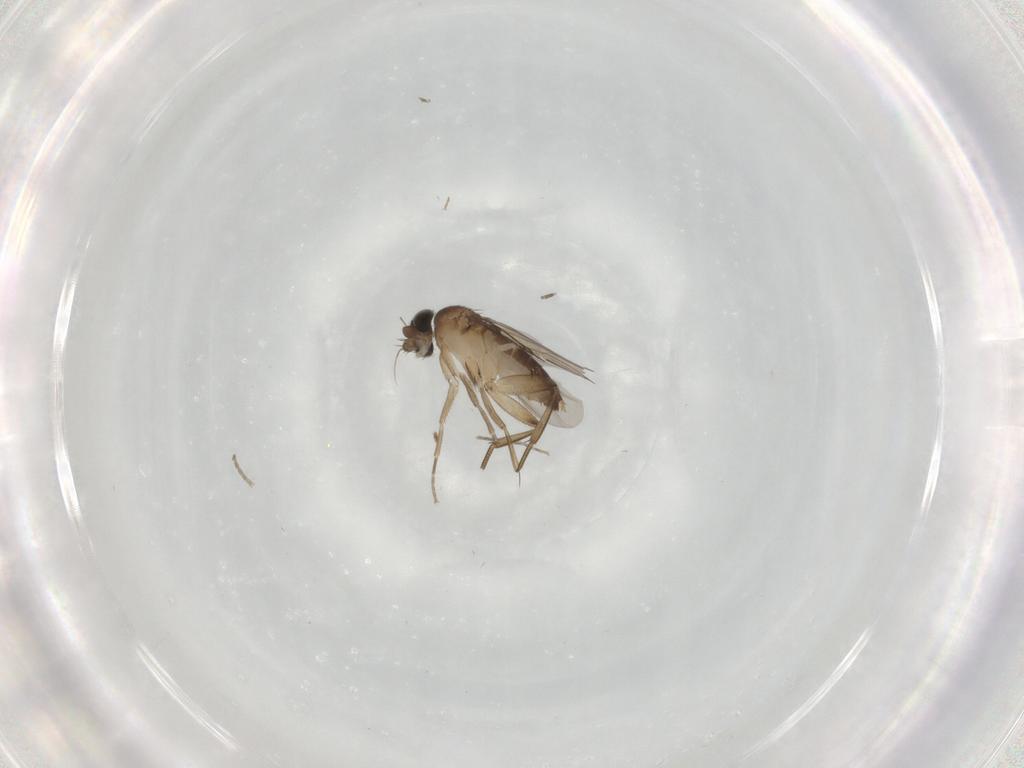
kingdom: Animalia
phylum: Arthropoda
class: Insecta
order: Diptera
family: Phoridae
